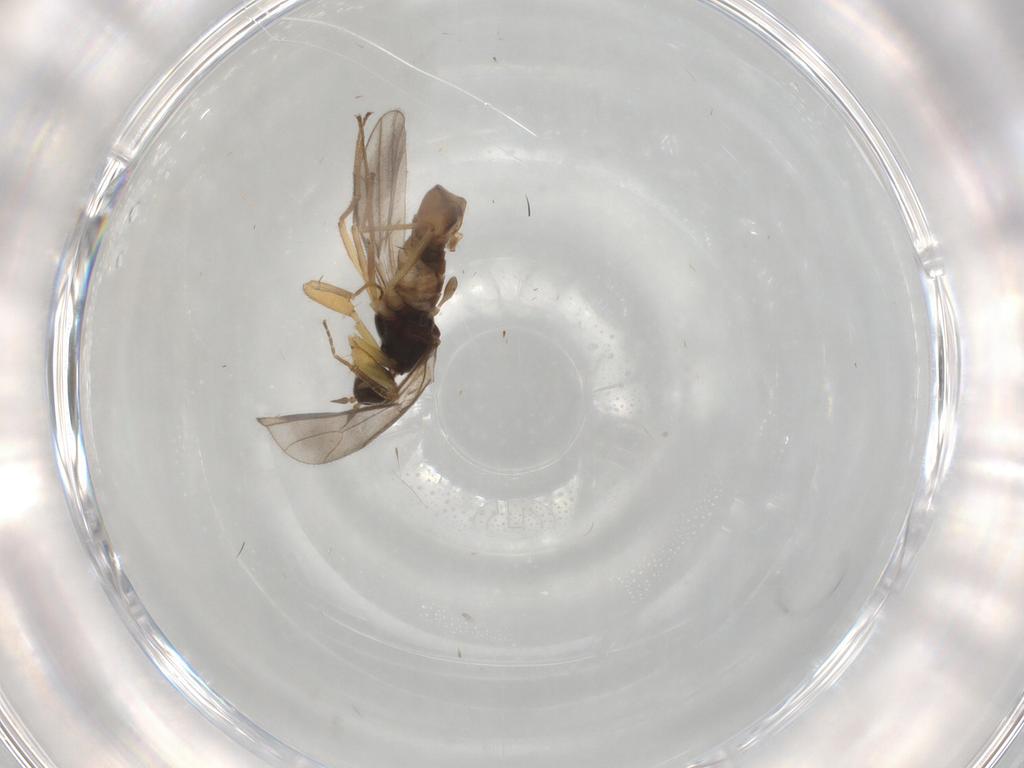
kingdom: Animalia
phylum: Arthropoda
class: Insecta
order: Diptera
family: Empididae
